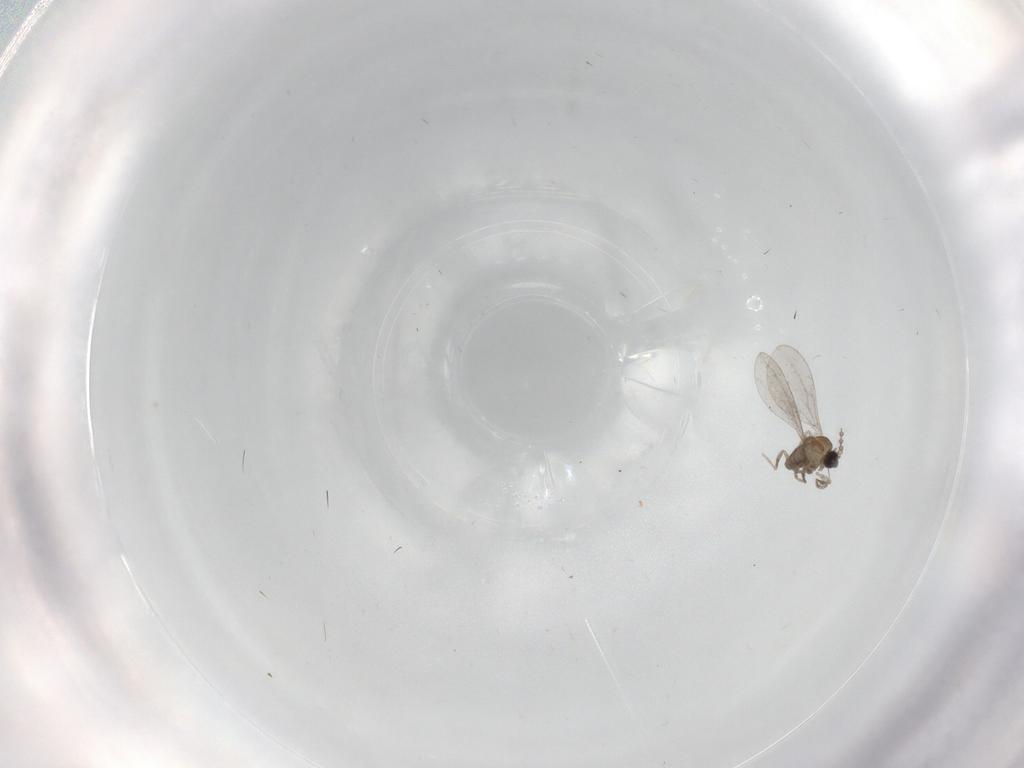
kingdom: Animalia
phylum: Arthropoda
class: Insecta
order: Diptera
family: Cecidomyiidae
